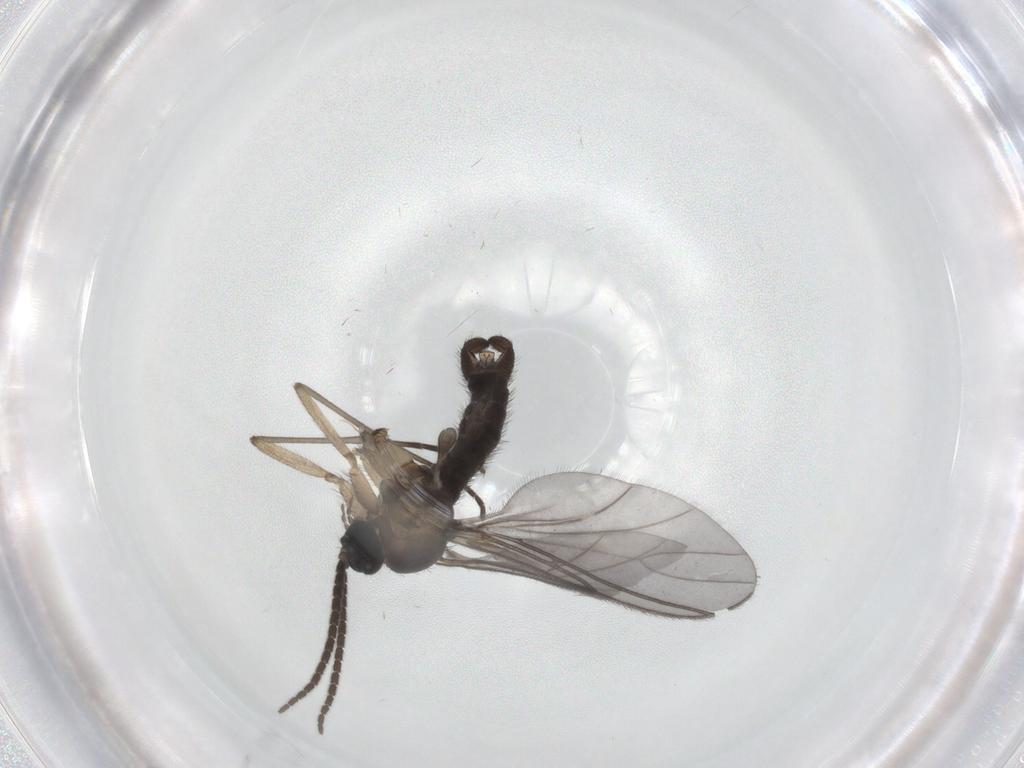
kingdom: Animalia
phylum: Arthropoda
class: Insecta
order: Diptera
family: Sciaridae
